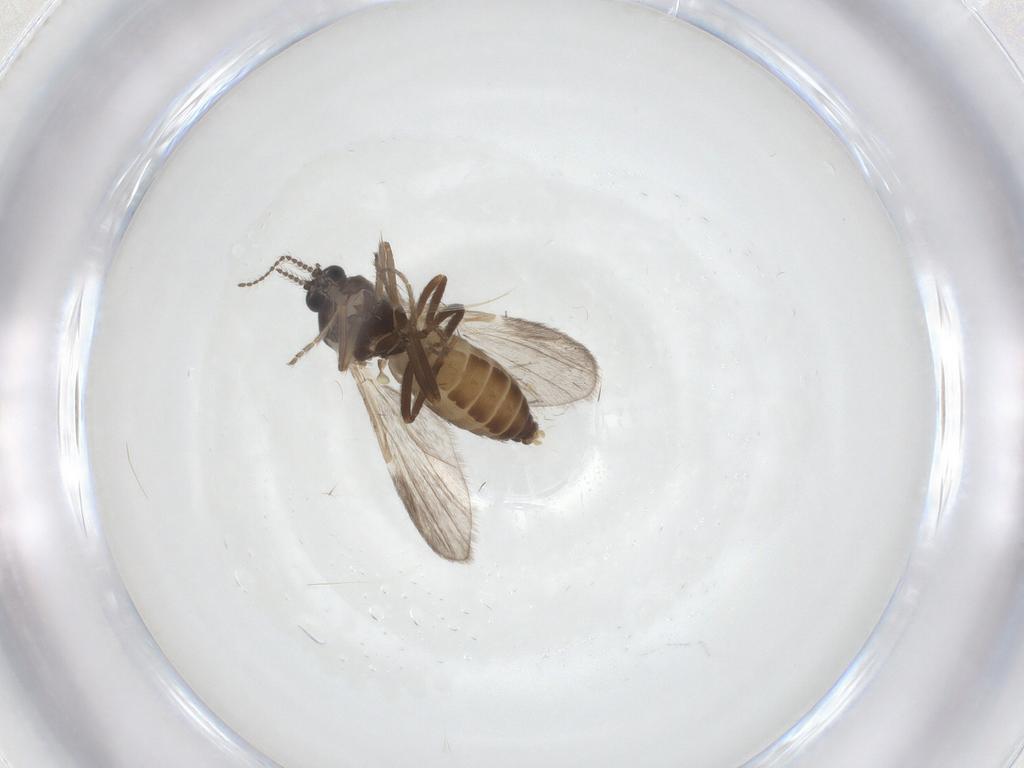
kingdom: Animalia
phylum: Arthropoda
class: Insecta
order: Diptera
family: Ceratopogonidae
